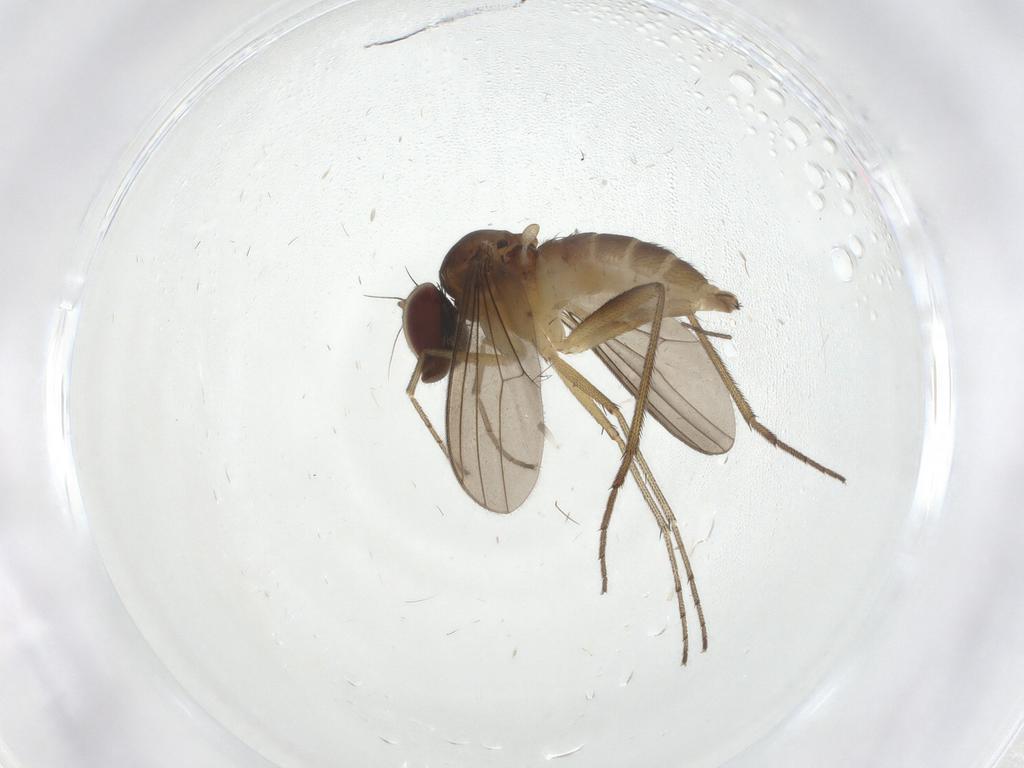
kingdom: Animalia
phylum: Arthropoda
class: Insecta
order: Diptera
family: Dolichopodidae
